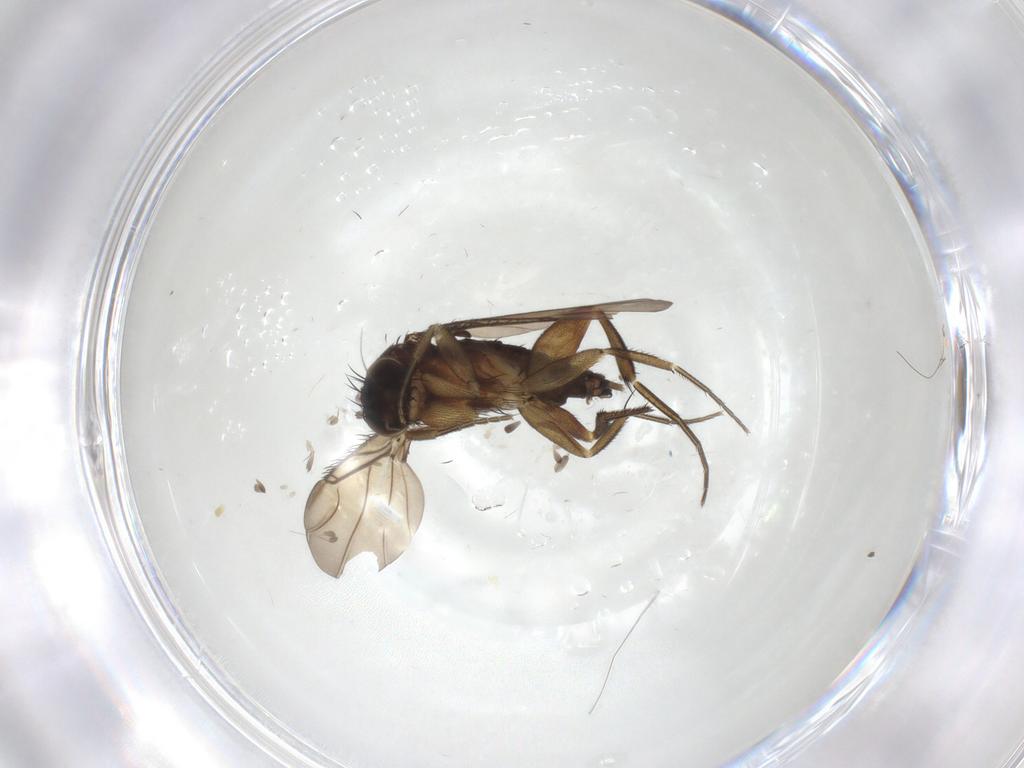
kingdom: Animalia
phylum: Arthropoda
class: Insecta
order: Diptera
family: Phoridae
